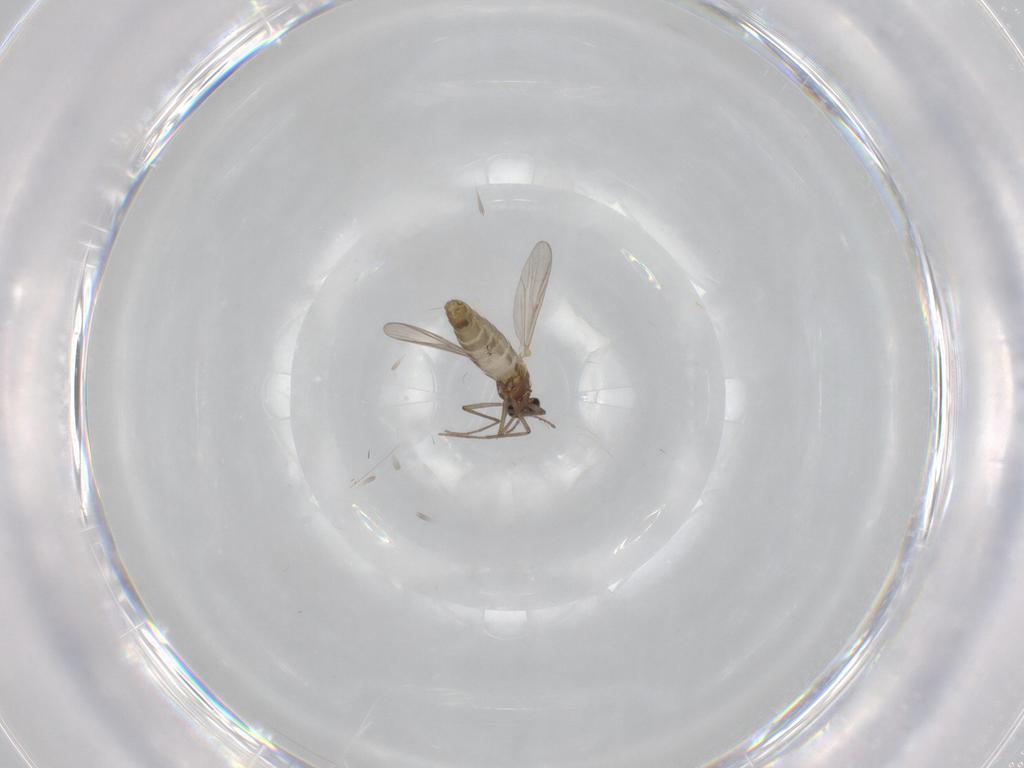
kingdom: Animalia
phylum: Arthropoda
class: Insecta
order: Diptera
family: Chironomidae
